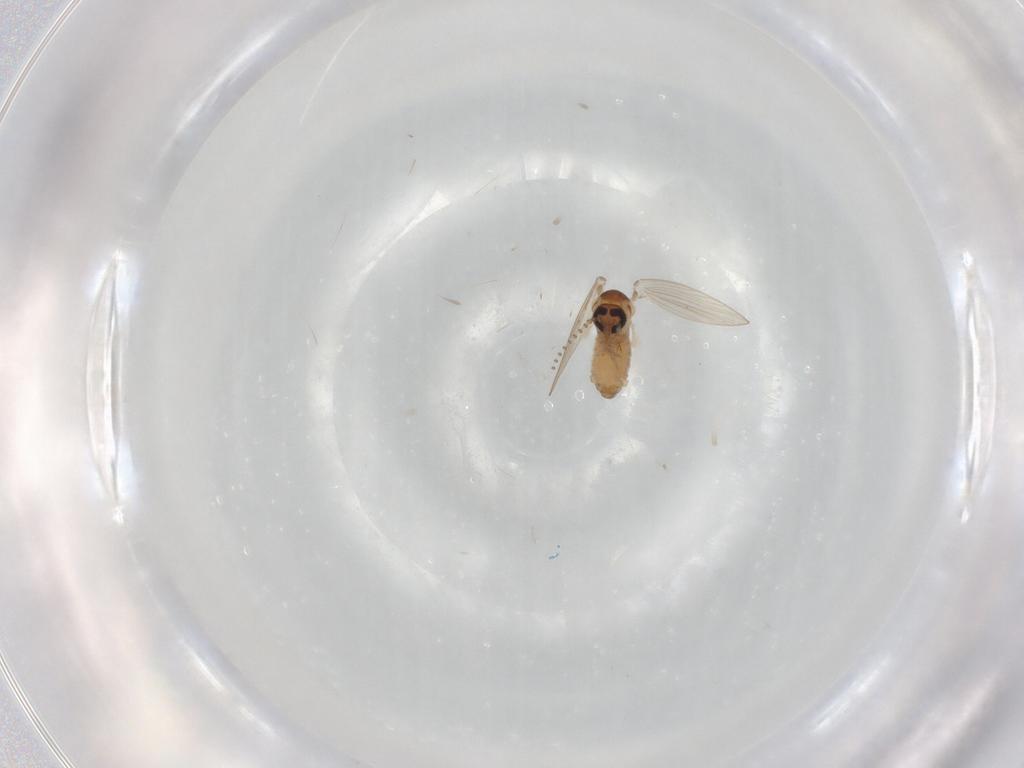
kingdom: Animalia
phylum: Arthropoda
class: Insecta
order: Diptera
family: Psychodidae
